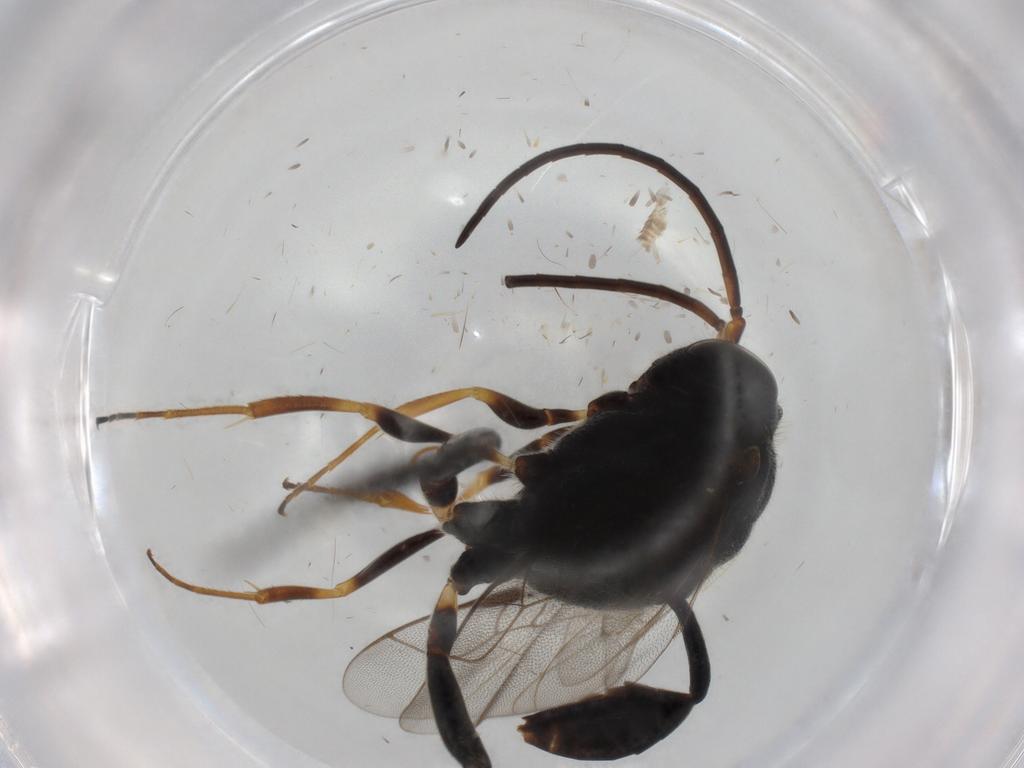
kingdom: Animalia
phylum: Arthropoda
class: Insecta
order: Hymenoptera
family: Evaniidae
